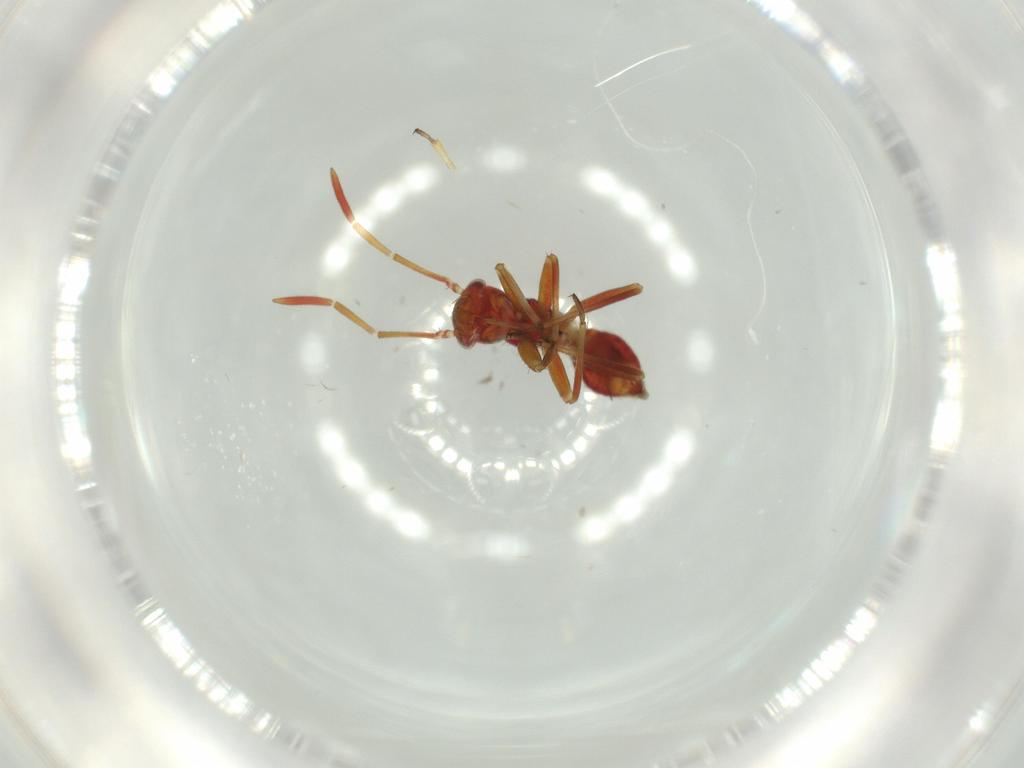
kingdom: Animalia
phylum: Arthropoda
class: Insecta
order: Hemiptera
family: Miridae
